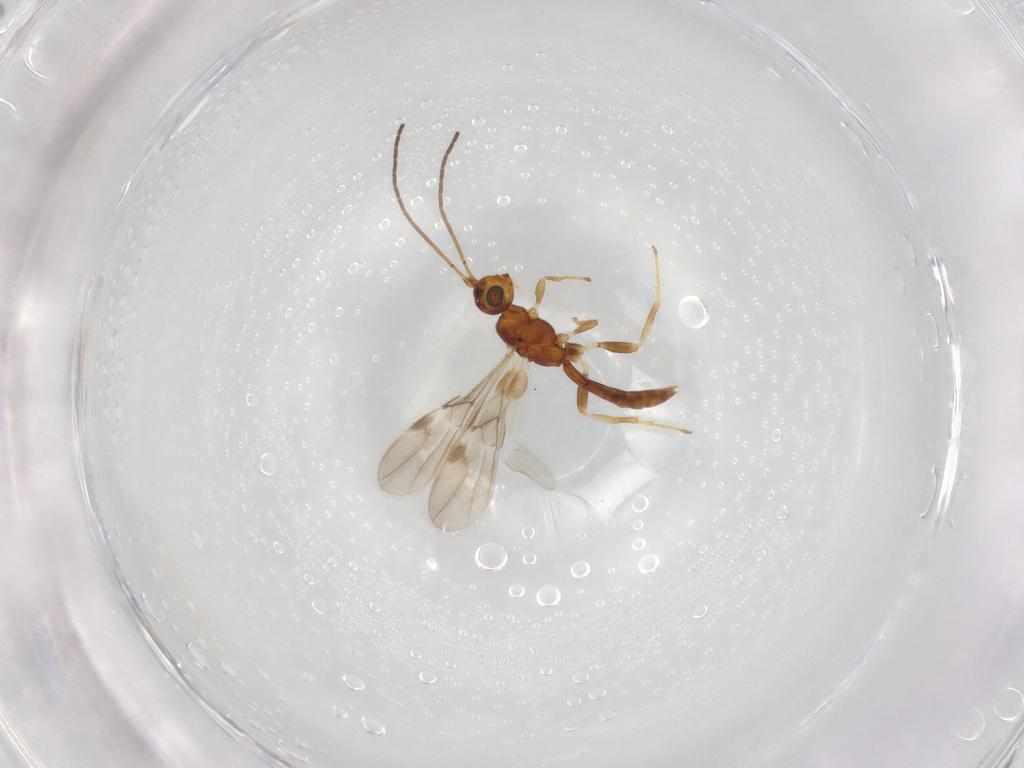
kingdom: Animalia
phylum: Arthropoda
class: Insecta
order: Hymenoptera
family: Braconidae
